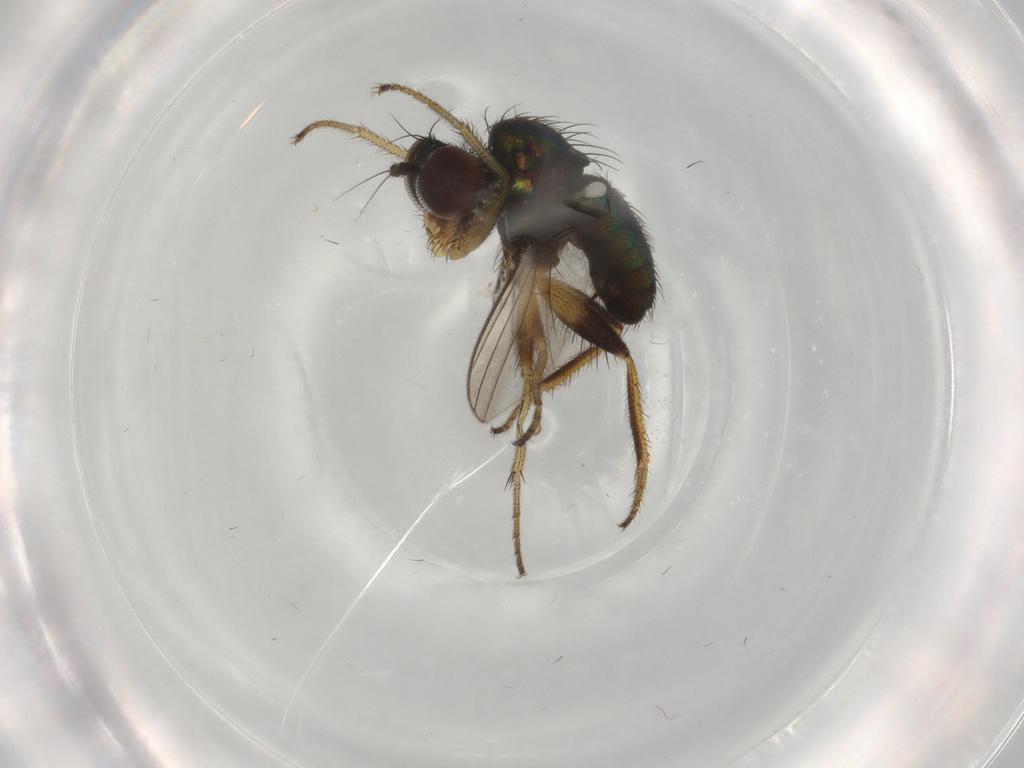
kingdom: Animalia
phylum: Arthropoda
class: Insecta
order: Diptera
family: Dolichopodidae
